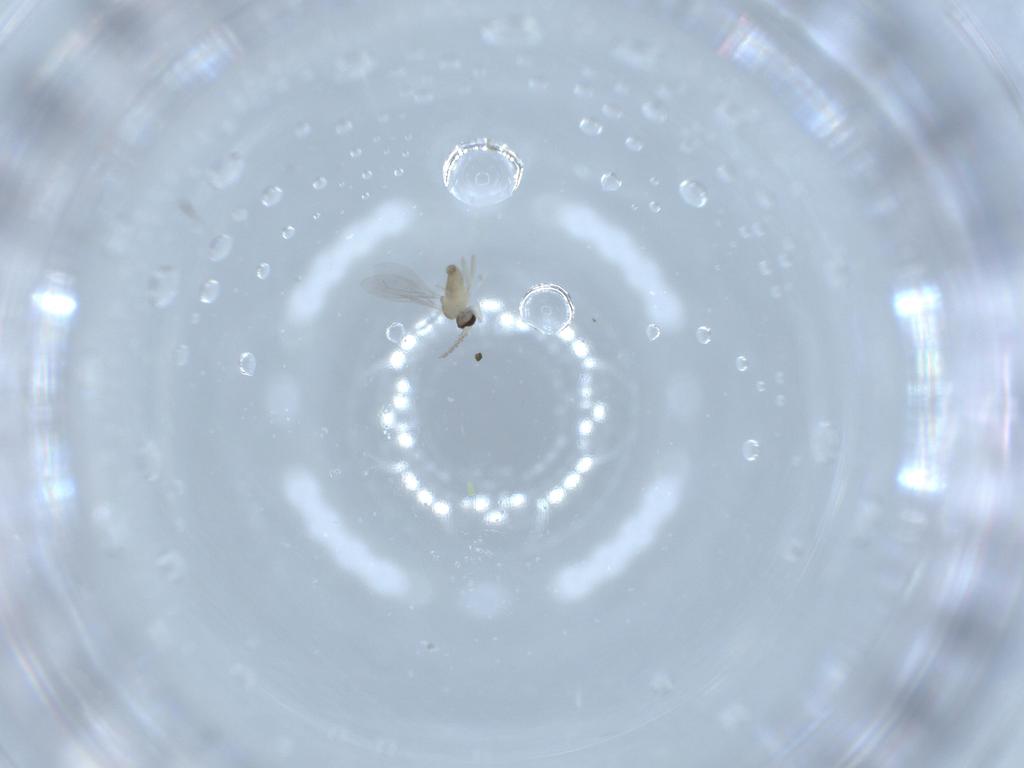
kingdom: Animalia
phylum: Arthropoda
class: Insecta
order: Diptera
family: Cecidomyiidae
